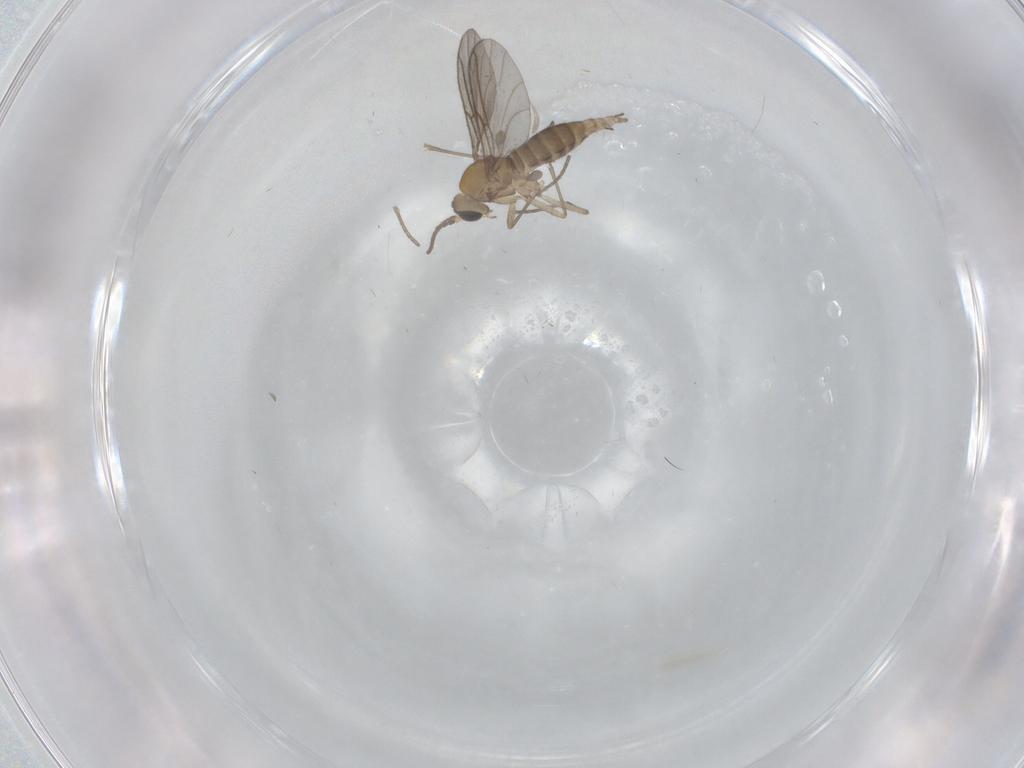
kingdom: Animalia
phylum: Arthropoda
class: Insecta
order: Diptera
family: Sciaridae
